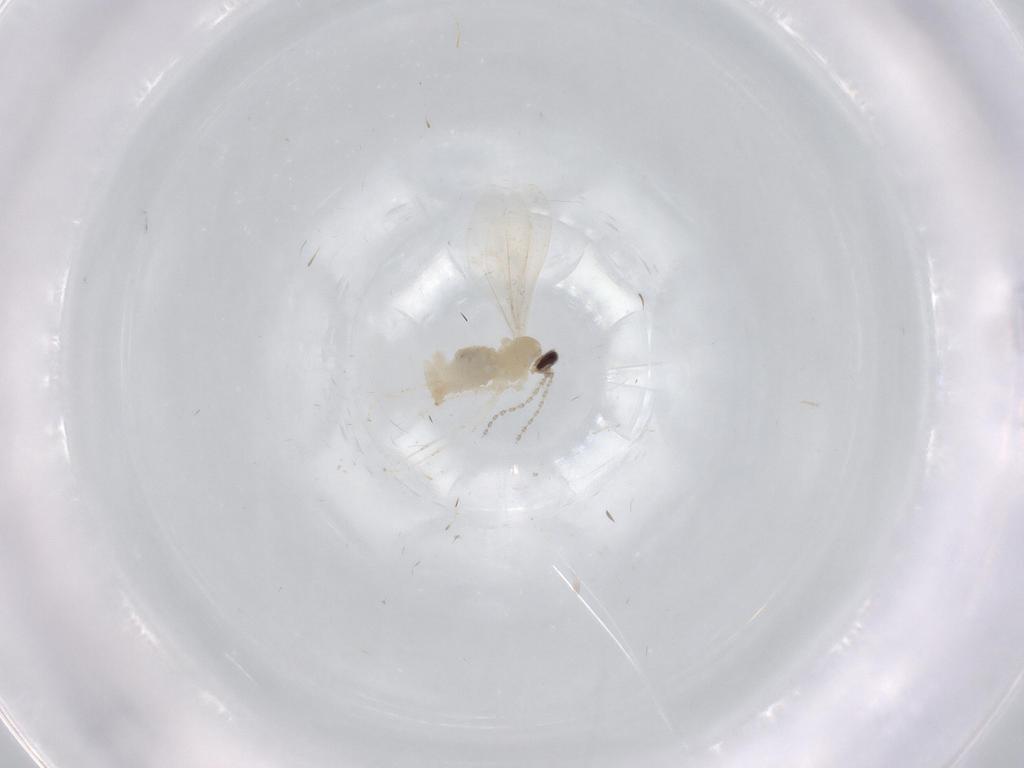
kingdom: Animalia
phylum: Arthropoda
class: Insecta
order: Diptera
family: Cecidomyiidae
